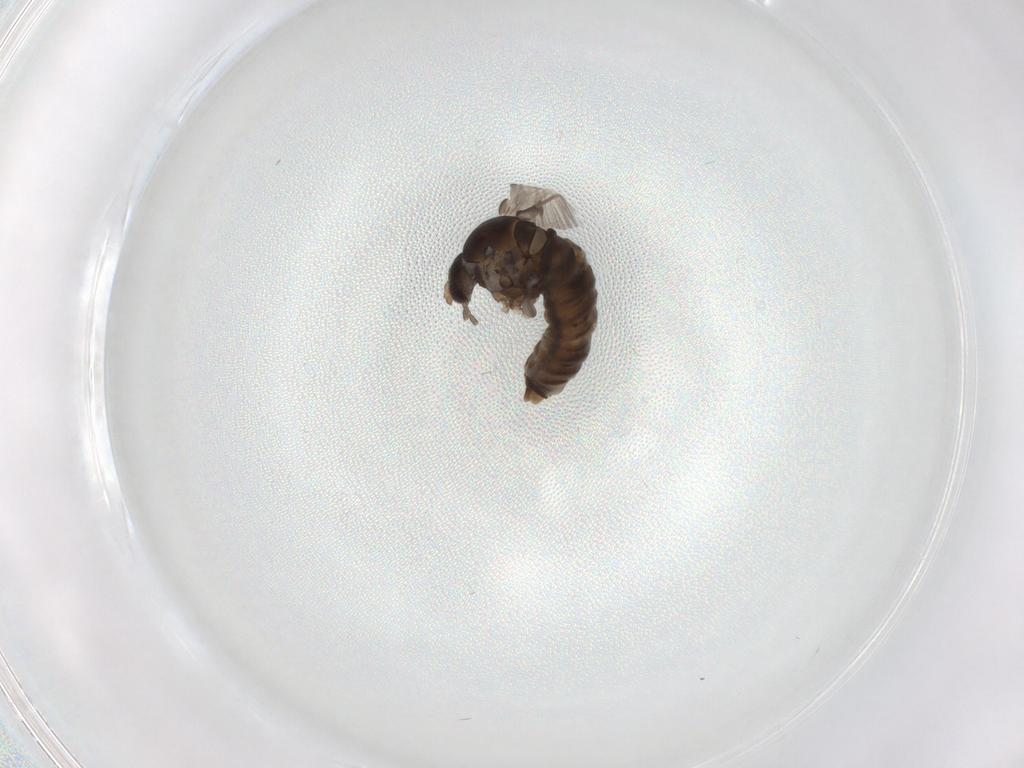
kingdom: Animalia
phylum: Arthropoda
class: Insecta
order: Diptera
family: Psychodidae
